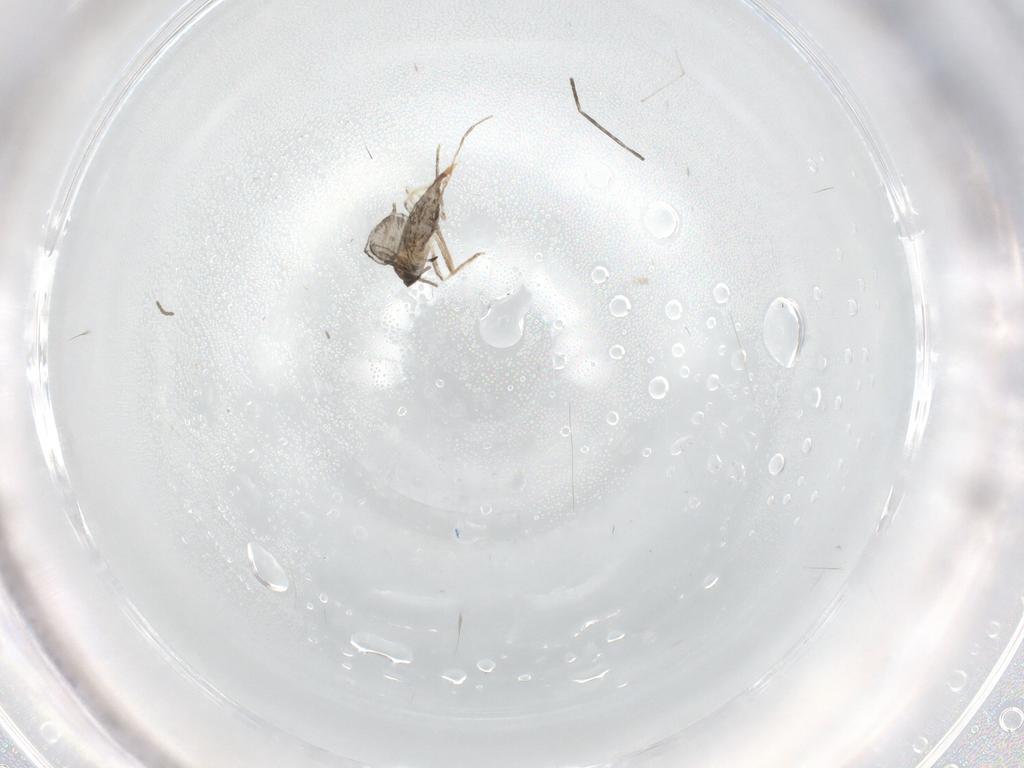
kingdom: Animalia
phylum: Arthropoda
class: Insecta
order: Diptera
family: Cecidomyiidae
